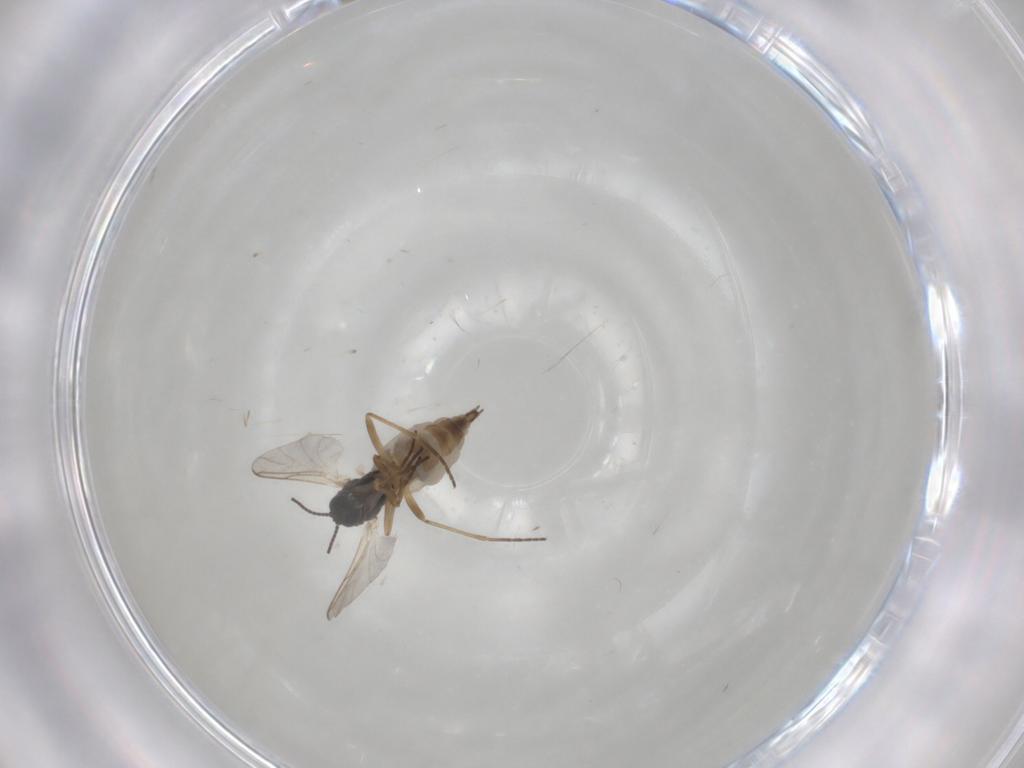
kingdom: Animalia
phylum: Arthropoda
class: Insecta
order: Diptera
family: Sciaridae
